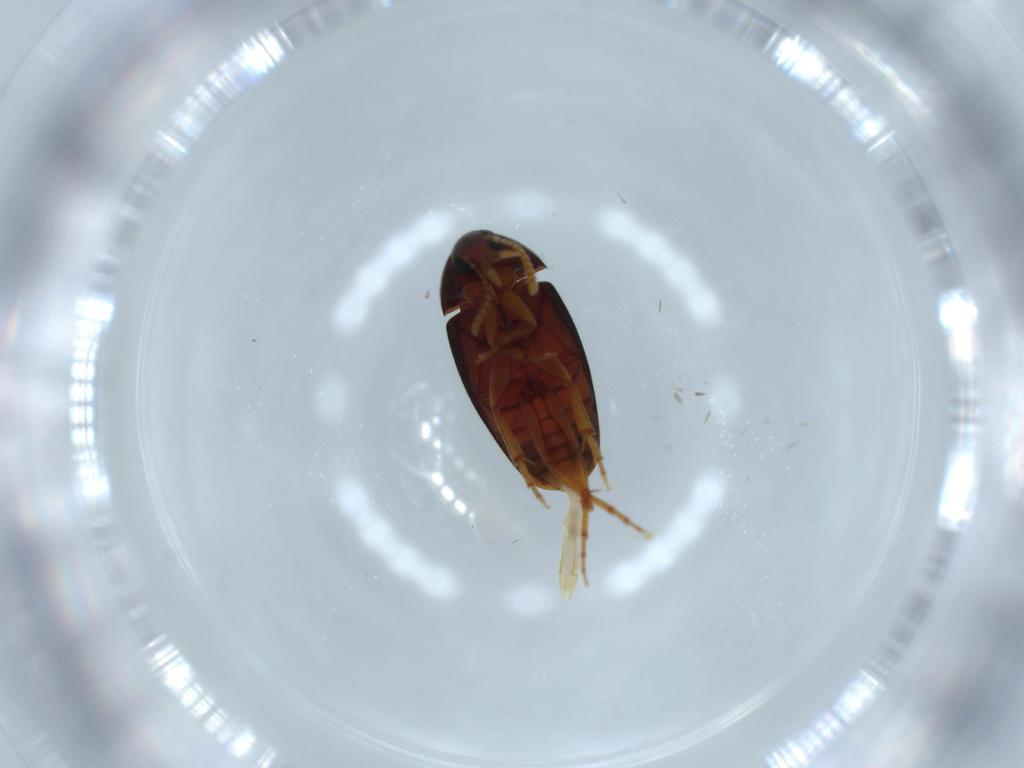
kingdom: Animalia
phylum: Arthropoda
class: Insecta
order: Coleoptera
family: Scraptiidae
